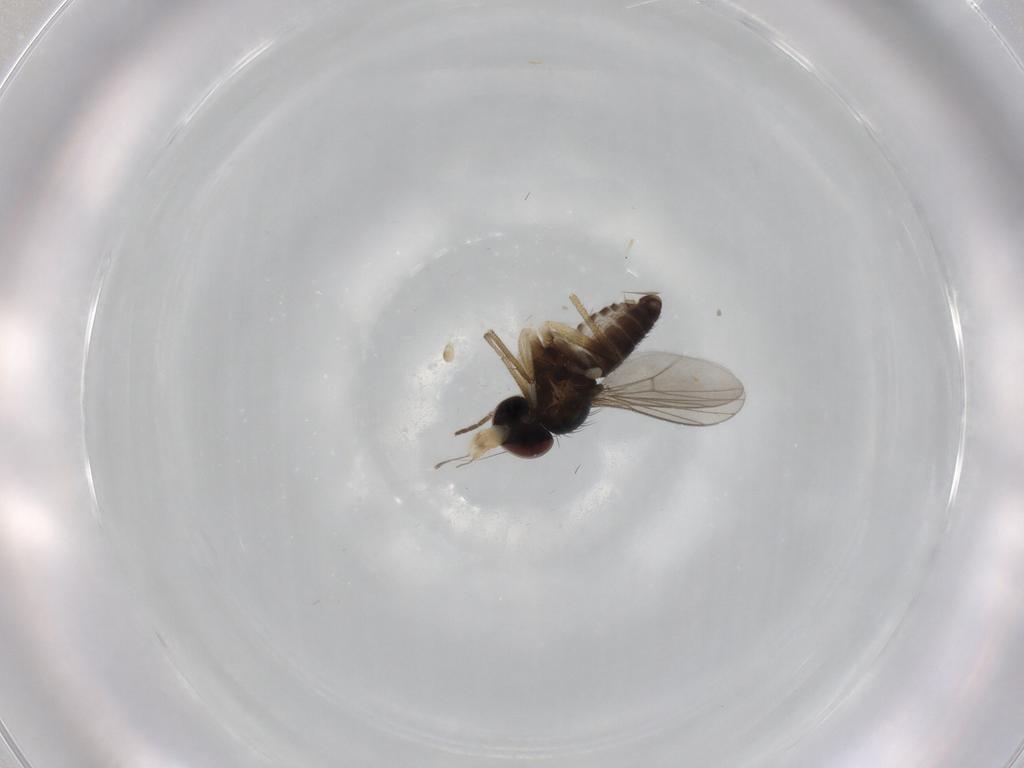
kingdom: Animalia
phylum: Arthropoda
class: Insecta
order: Diptera
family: Dolichopodidae
